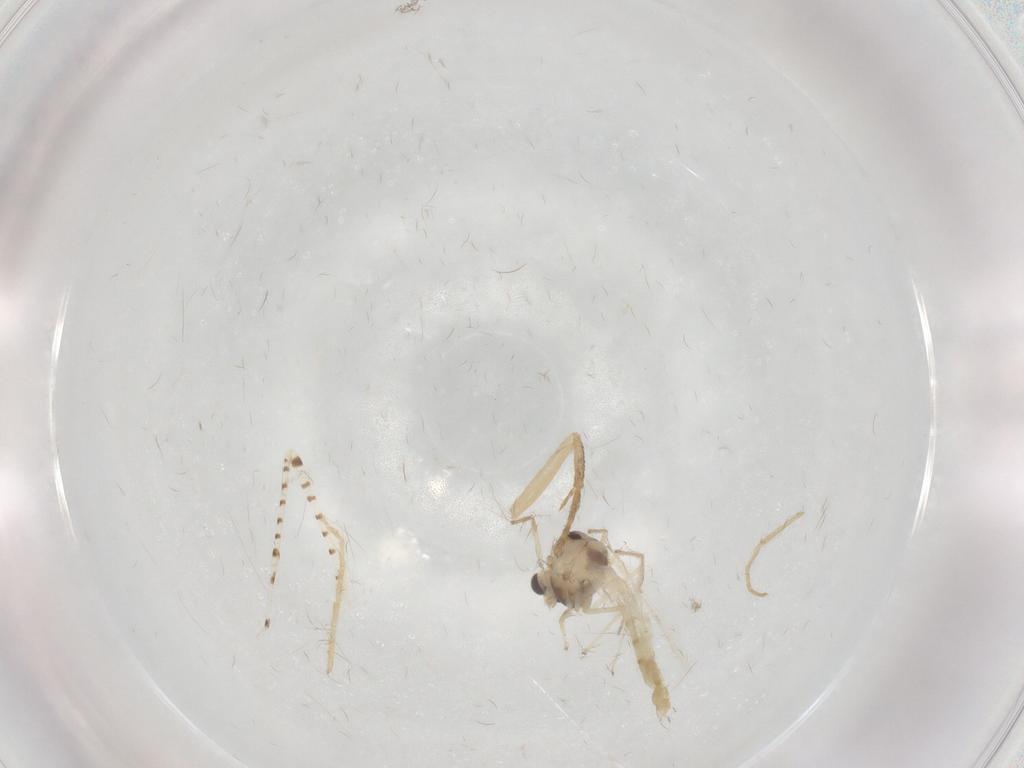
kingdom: Animalia
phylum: Arthropoda
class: Insecta
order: Diptera
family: Chironomidae
